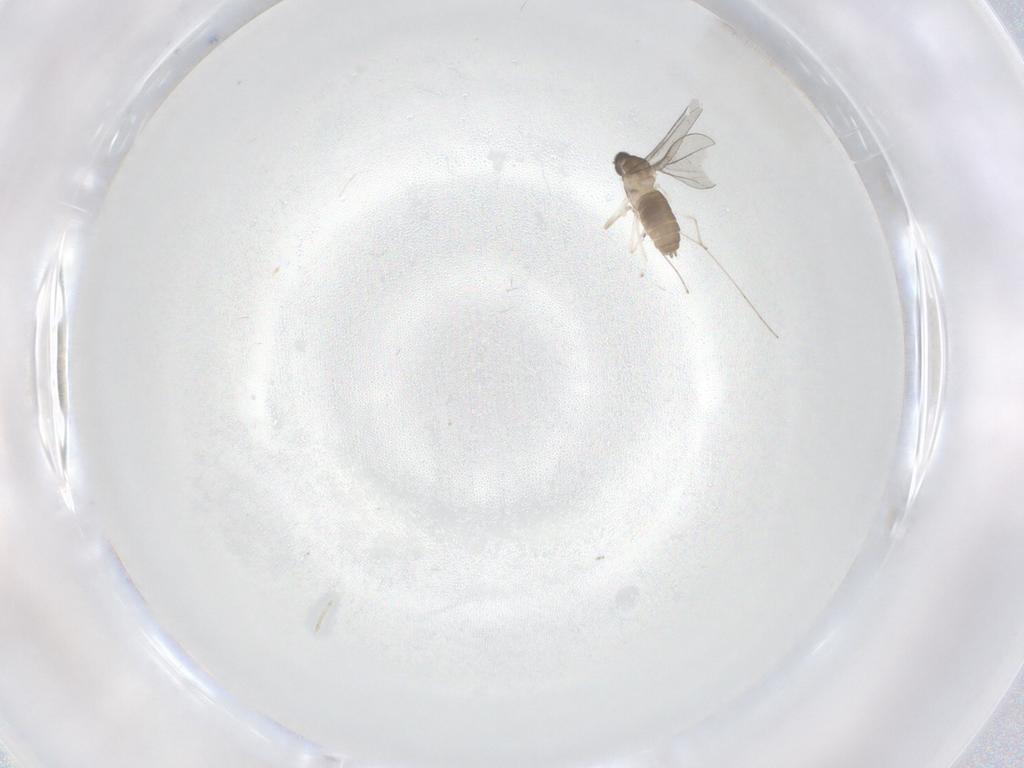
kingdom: Animalia
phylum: Arthropoda
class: Insecta
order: Diptera
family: Cecidomyiidae
